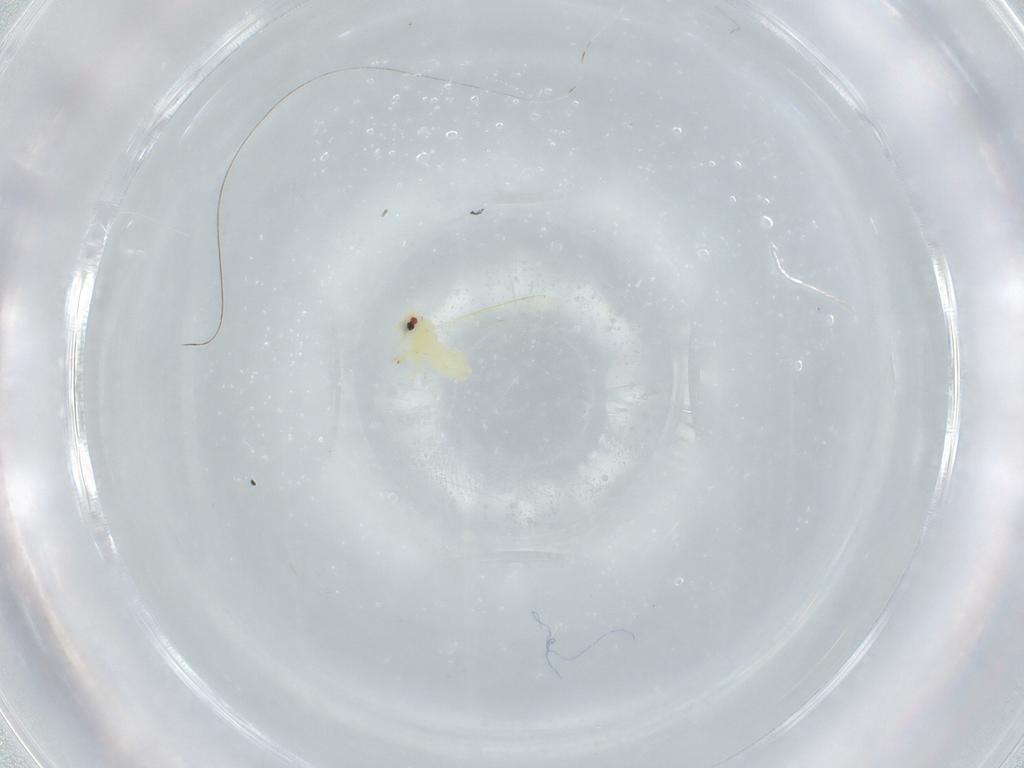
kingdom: Animalia
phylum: Arthropoda
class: Insecta
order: Hemiptera
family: Aleyrodidae
